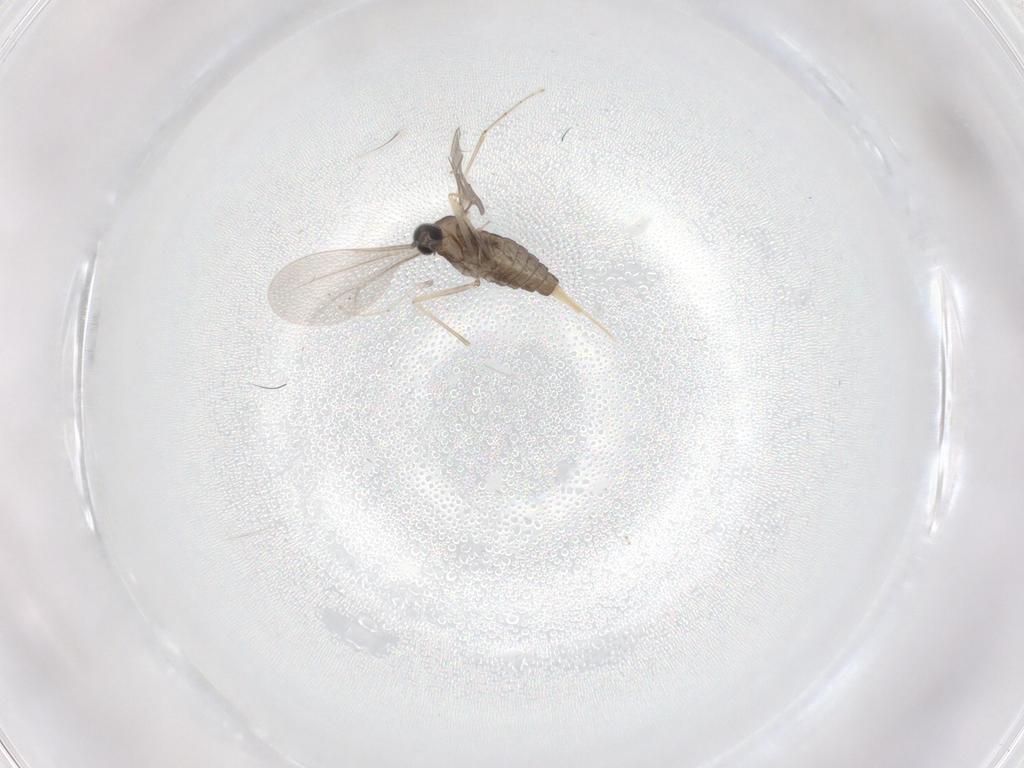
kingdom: Animalia
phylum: Arthropoda
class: Insecta
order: Diptera
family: Cecidomyiidae
